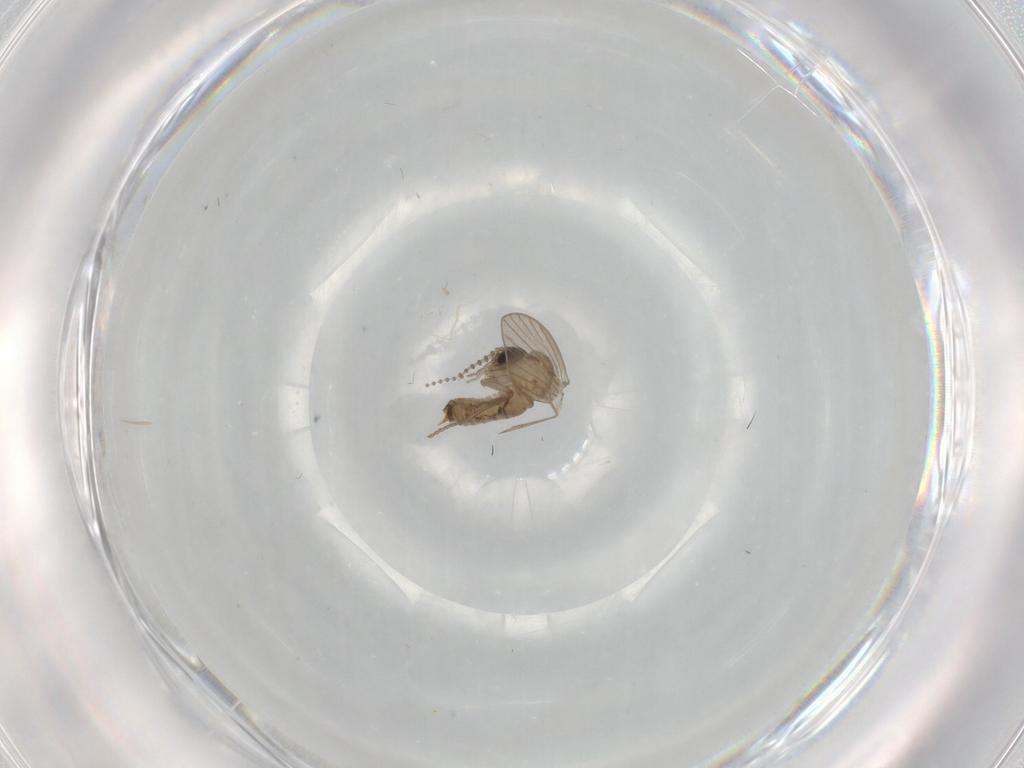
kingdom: Animalia
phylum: Arthropoda
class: Insecta
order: Diptera
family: Psychodidae
